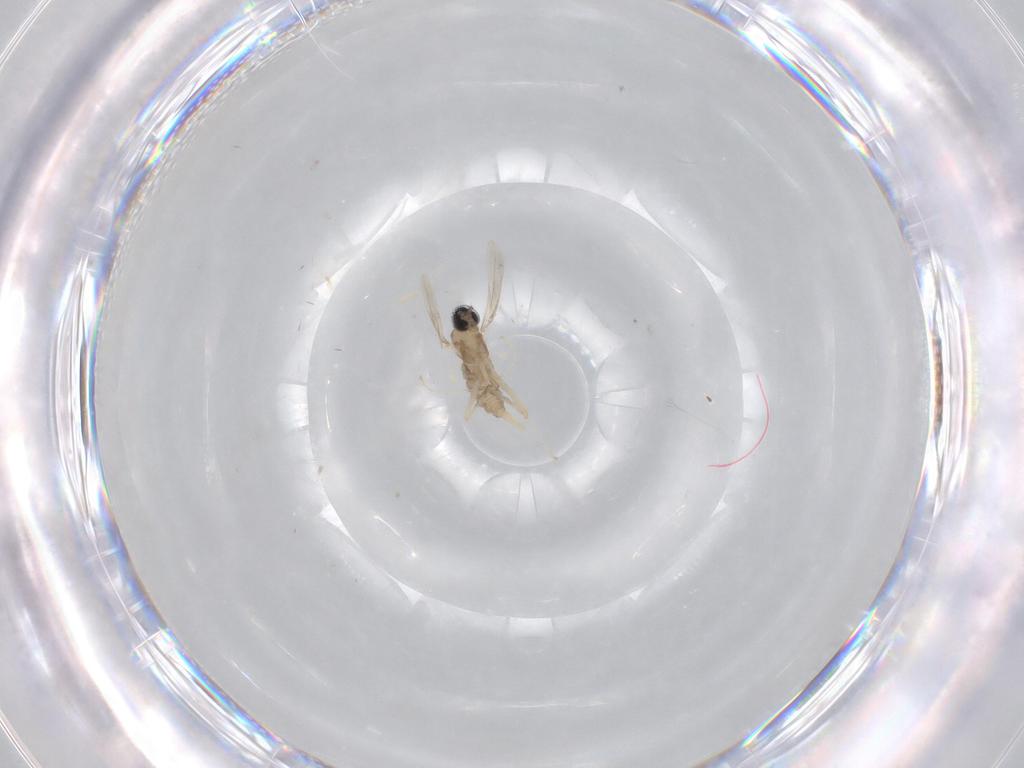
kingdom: Animalia
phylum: Arthropoda
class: Insecta
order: Diptera
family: Cecidomyiidae
